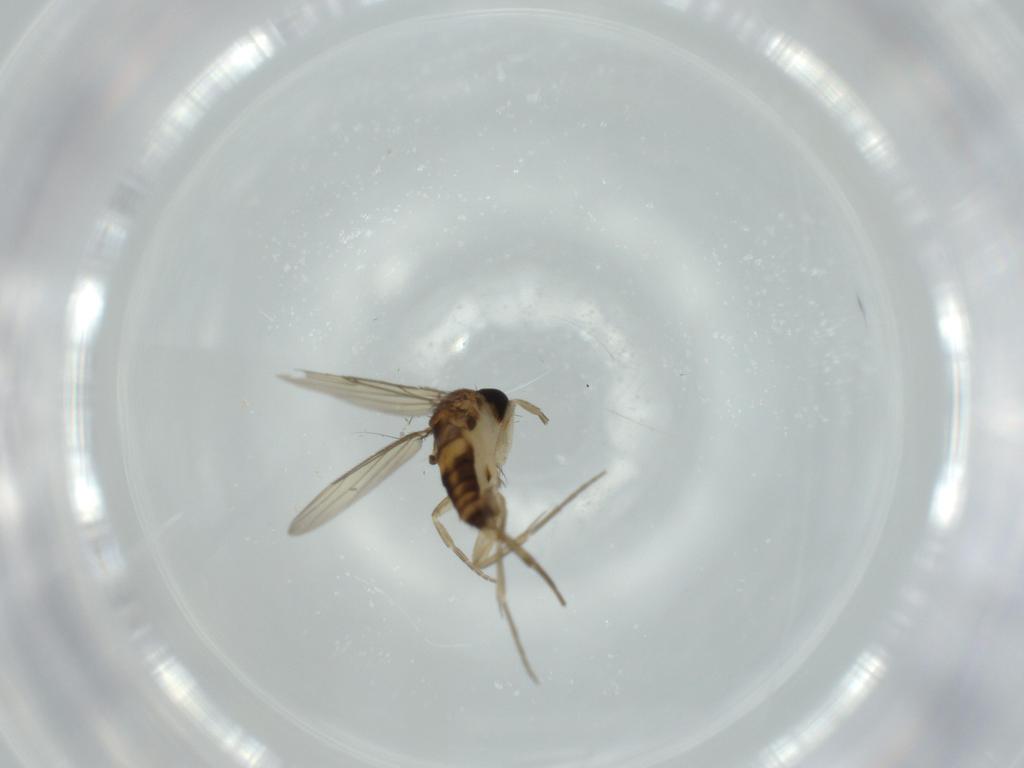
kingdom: Animalia
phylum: Arthropoda
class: Insecta
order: Diptera
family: Phoridae
